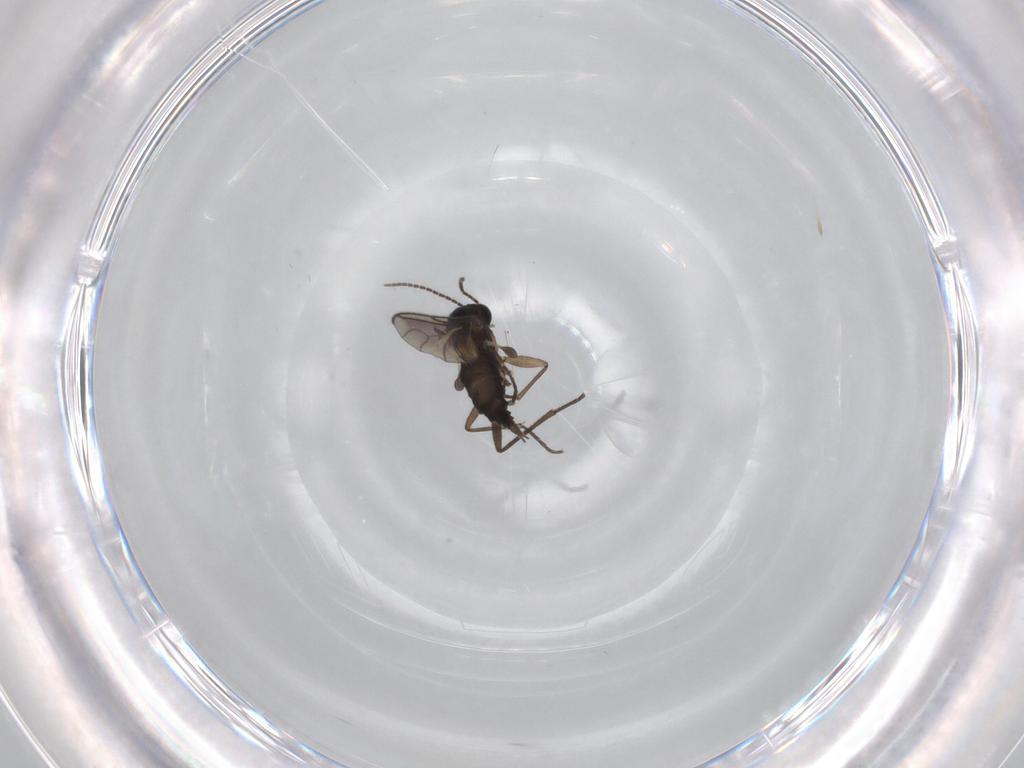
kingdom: Animalia
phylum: Arthropoda
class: Insecta
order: Diptera
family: Sciaridae
